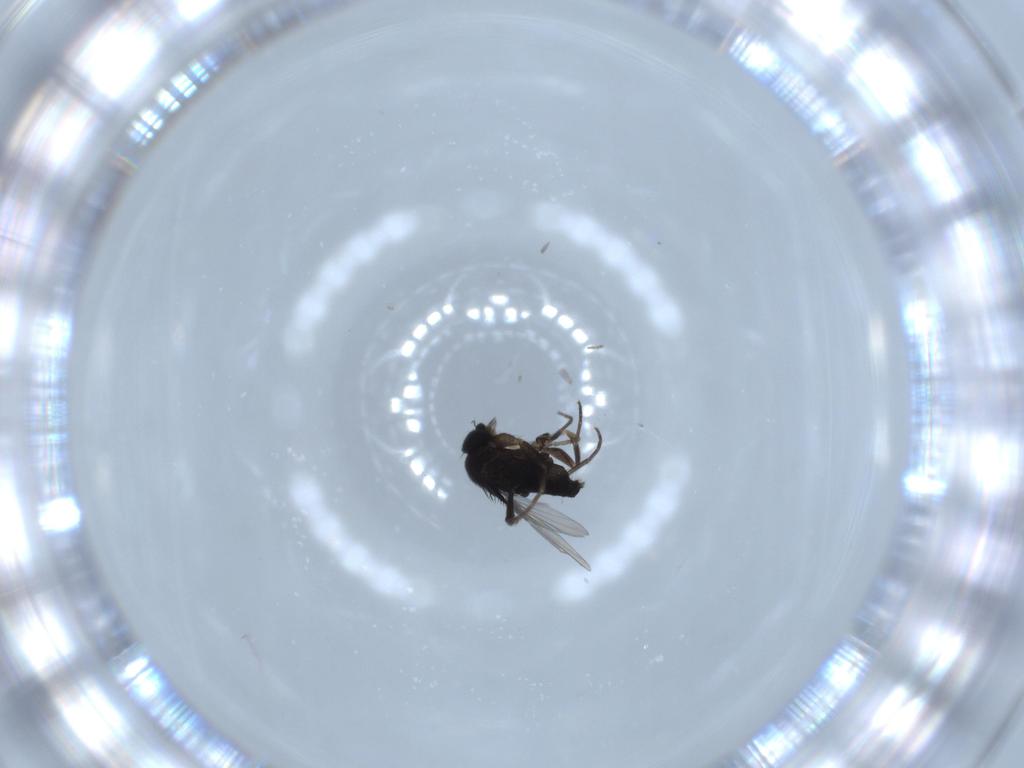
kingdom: Animalia
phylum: Arthropoda
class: Insecta
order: Diptera
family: Phoridae
